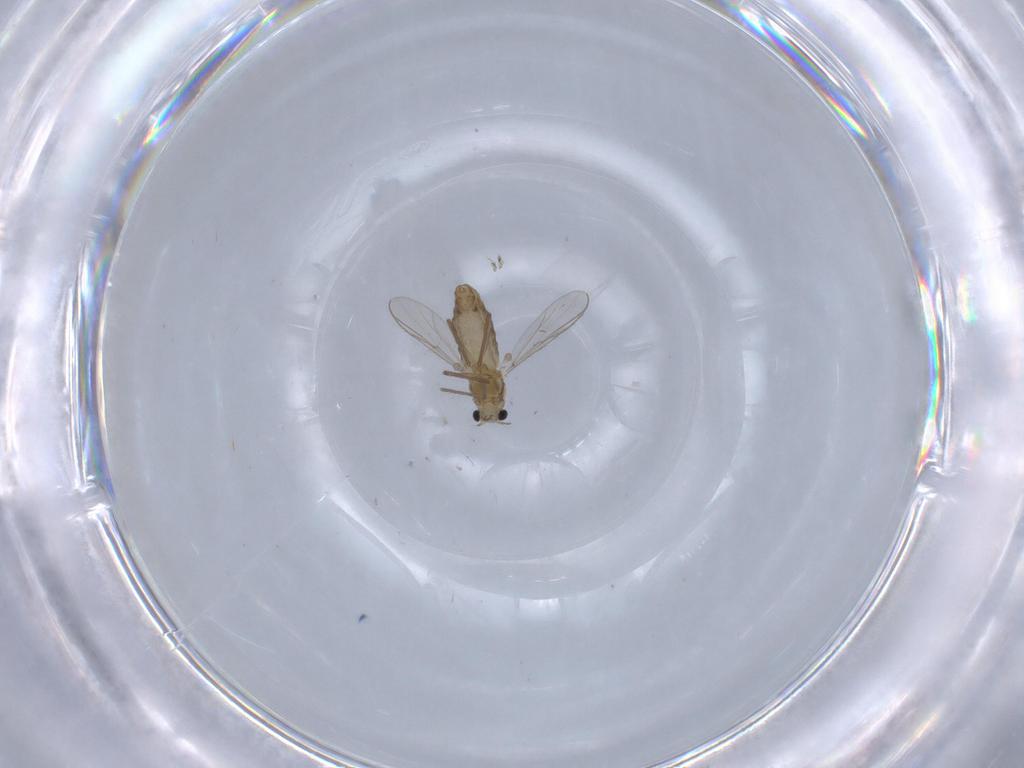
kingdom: Animalia
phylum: Arthropoda
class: Insecta
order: Diptera
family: Chironomidae
